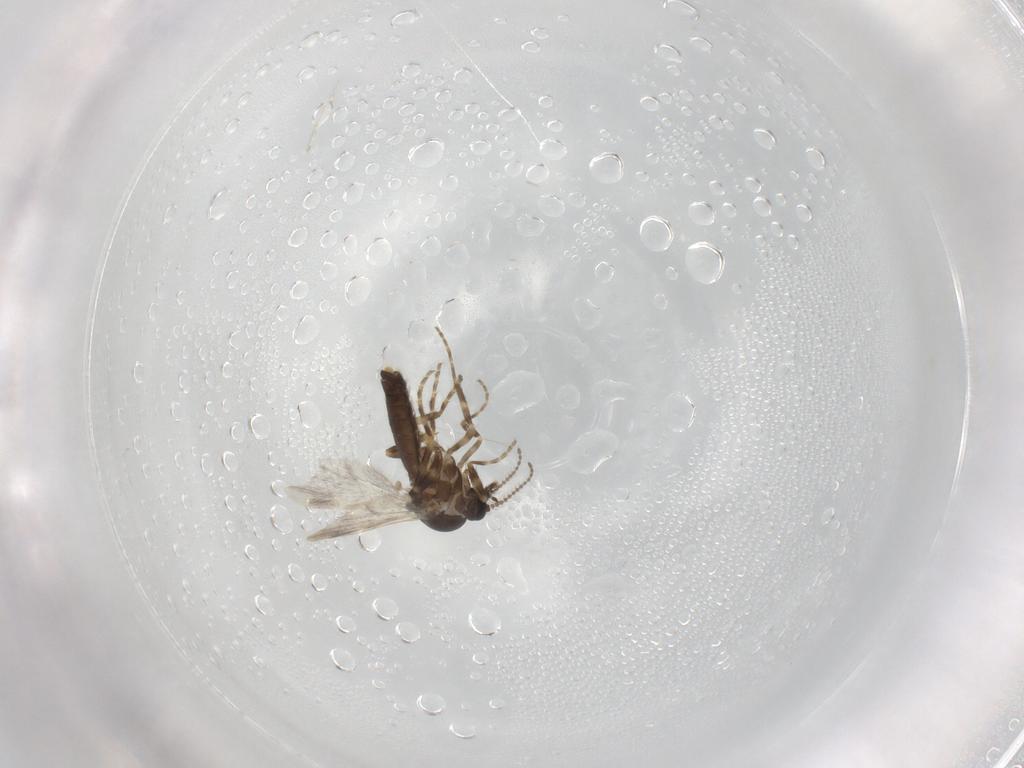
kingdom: Animalia
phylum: Arthropoda
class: Insecta
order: Diptera
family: Ceratopogonidae
